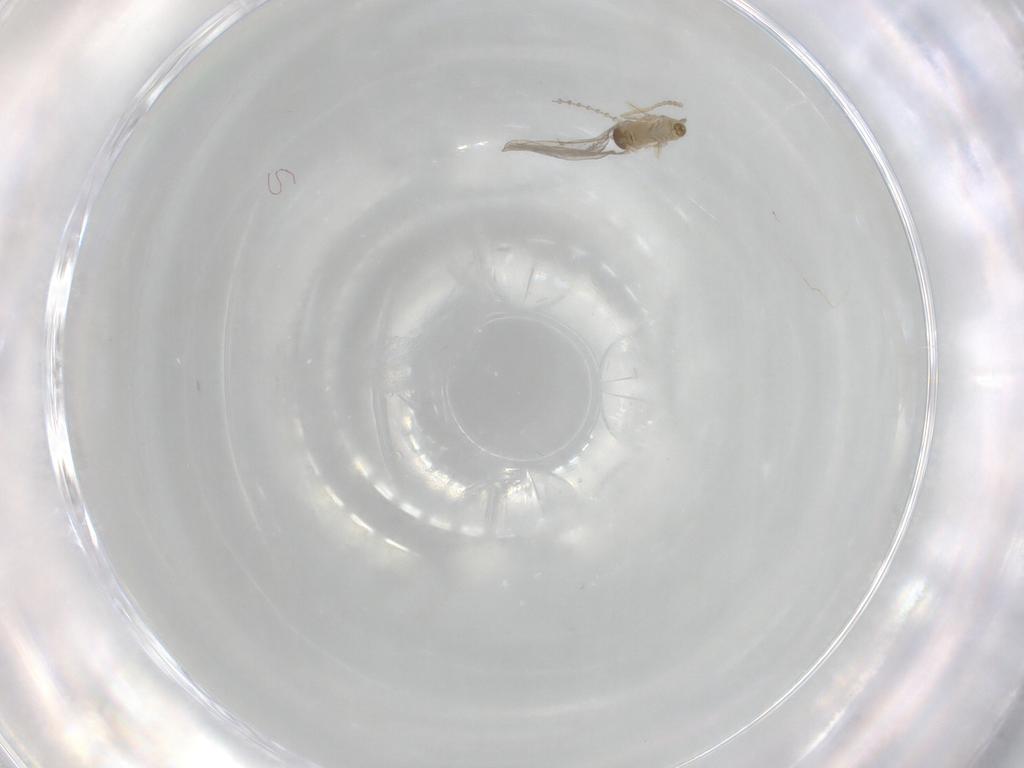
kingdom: Animalia
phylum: Arthropoda
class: Insecta
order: Diptera
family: Cecidomyiidae
